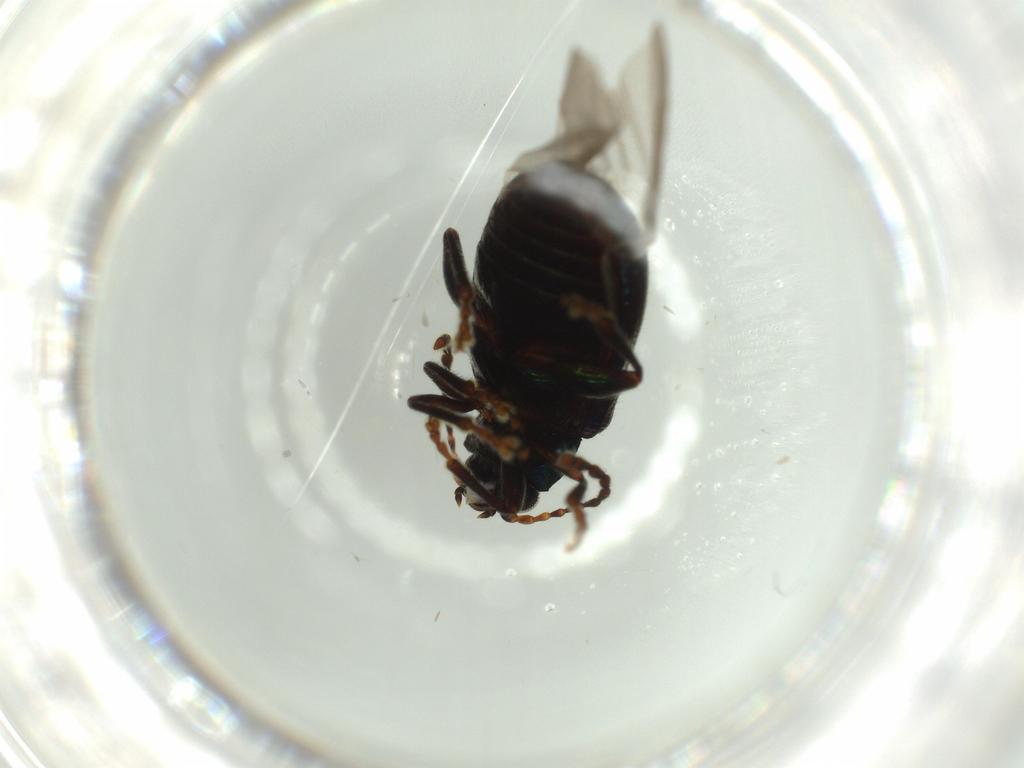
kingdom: Animalia
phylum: Arthropoda
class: Insecta
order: Coleoptera
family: Chrysomelidae
